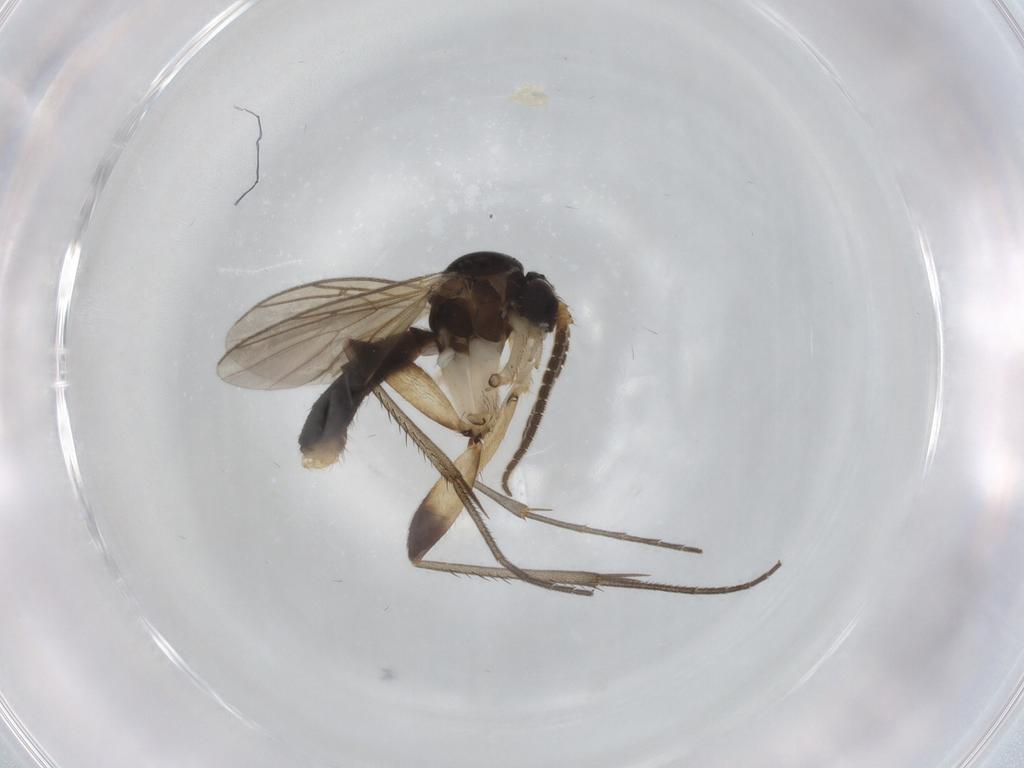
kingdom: Animalia
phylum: Arthropoda
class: Insecta
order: Diptera
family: Mycetophilidae
